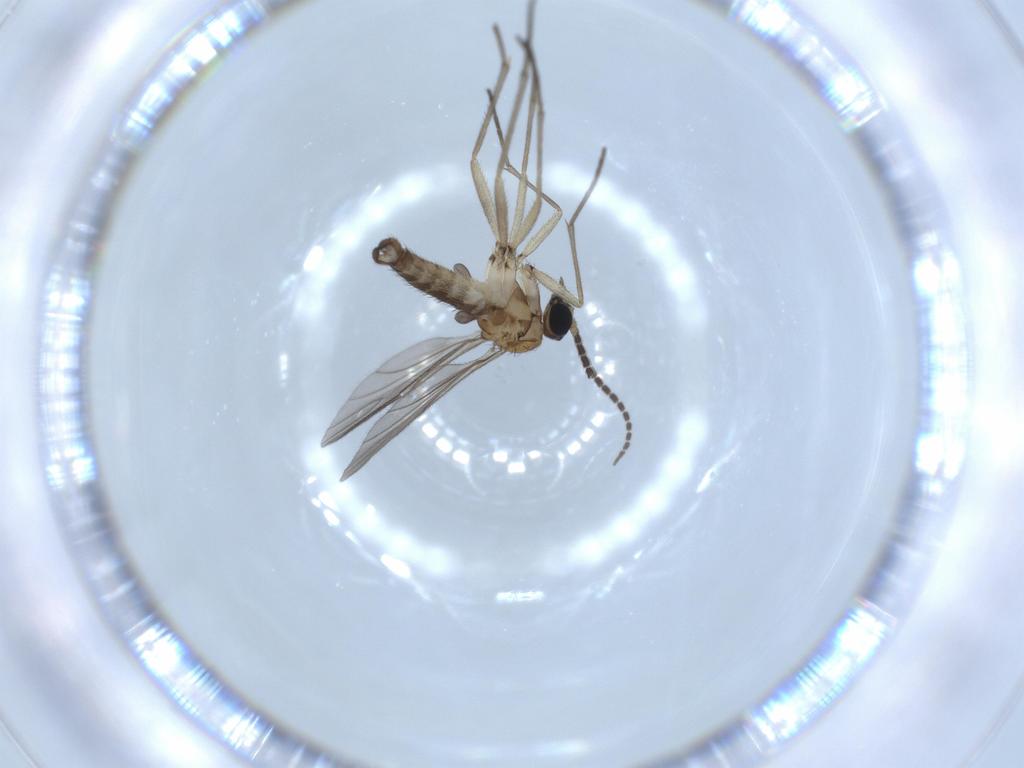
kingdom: Animalia
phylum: Arthropoda
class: Insecta
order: Diptera
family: Sciaridae
